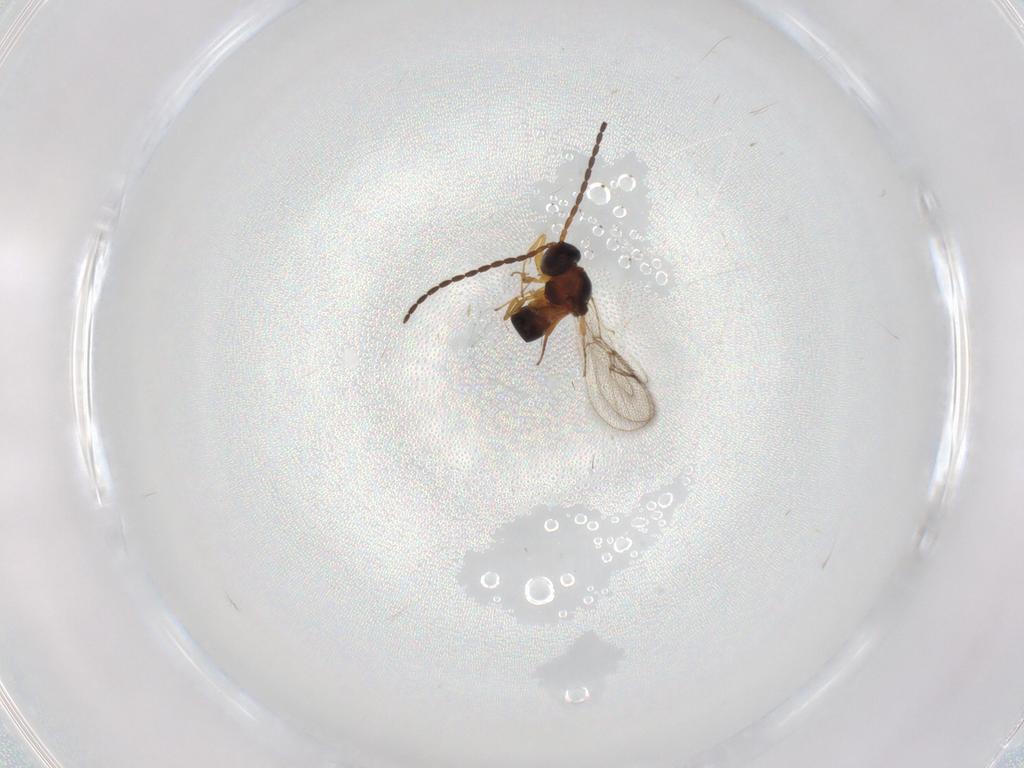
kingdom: Animalia
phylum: Arthropoda
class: Insecta
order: Hymenoptera
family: Figitidae
